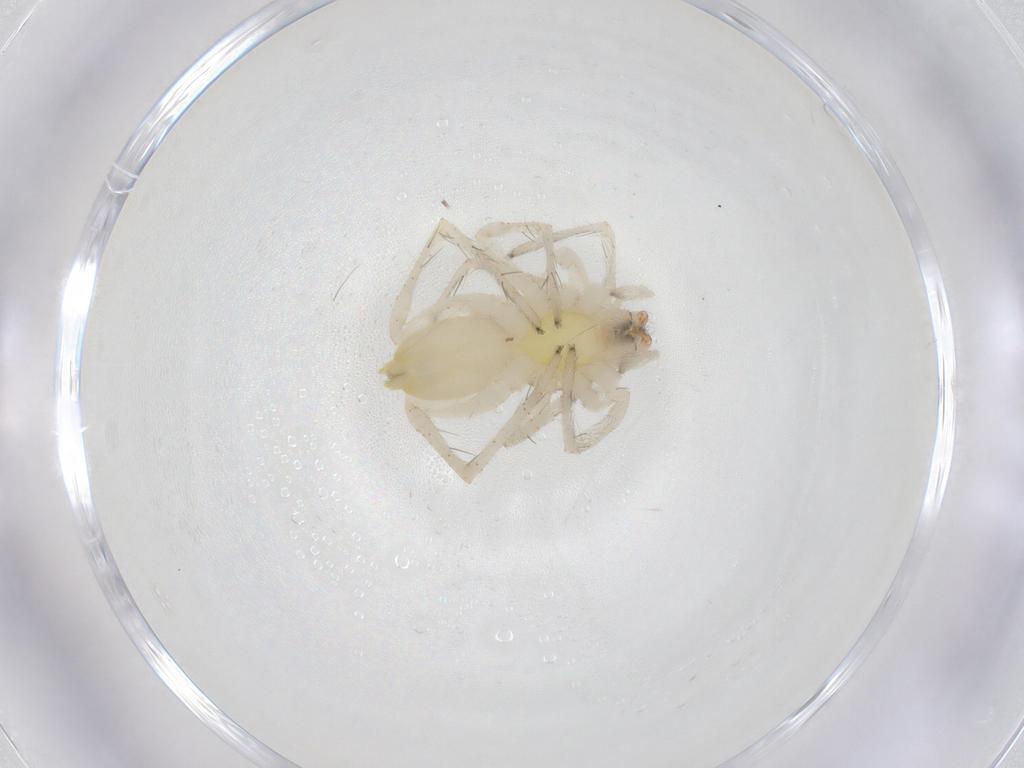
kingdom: Animalia
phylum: Arthropoda
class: Arachnida
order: Araneae
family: Anyphaenidae
